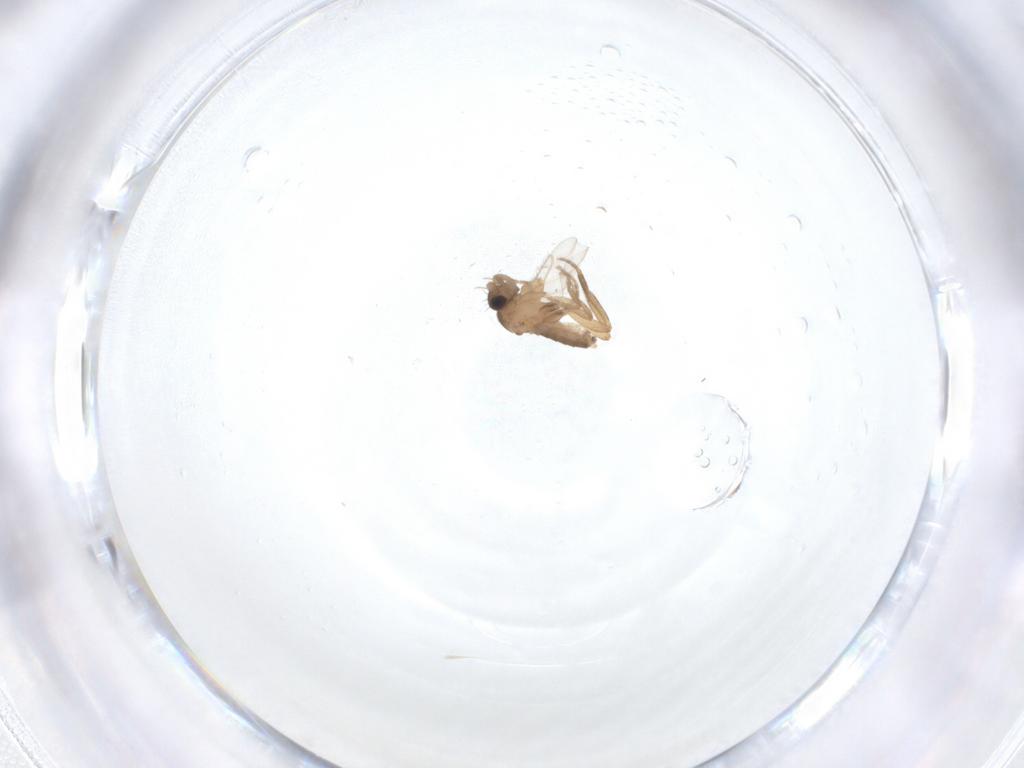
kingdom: Animalia
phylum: Arthropoda
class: Insecta
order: Diptera
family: Phoridae
